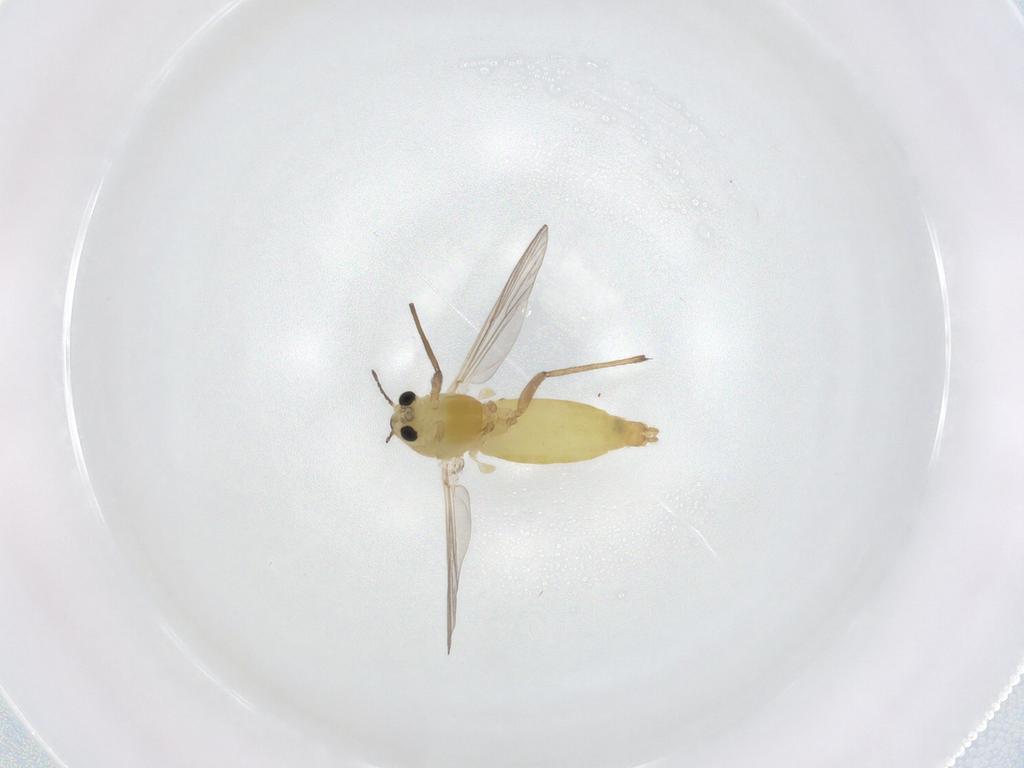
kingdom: Animalia
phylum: Arthropoda
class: Insecta
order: Diptera
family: Chironomidae
